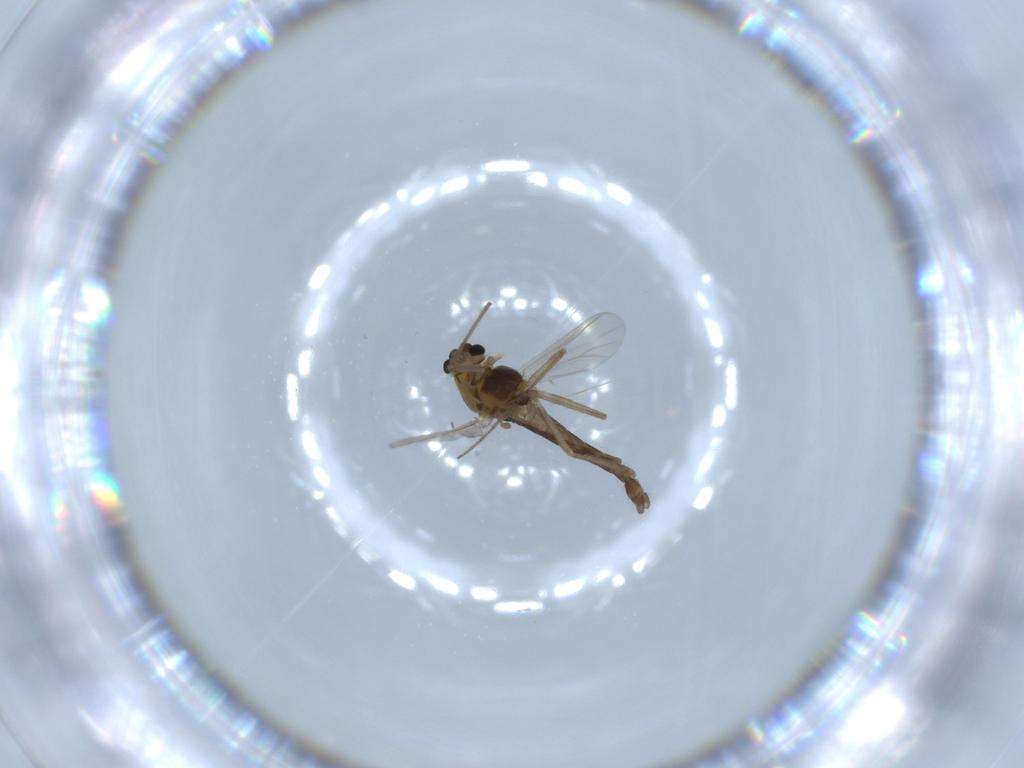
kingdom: Animalia
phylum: Arthropoda
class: Insecta
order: Diptera
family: Chironomidae
